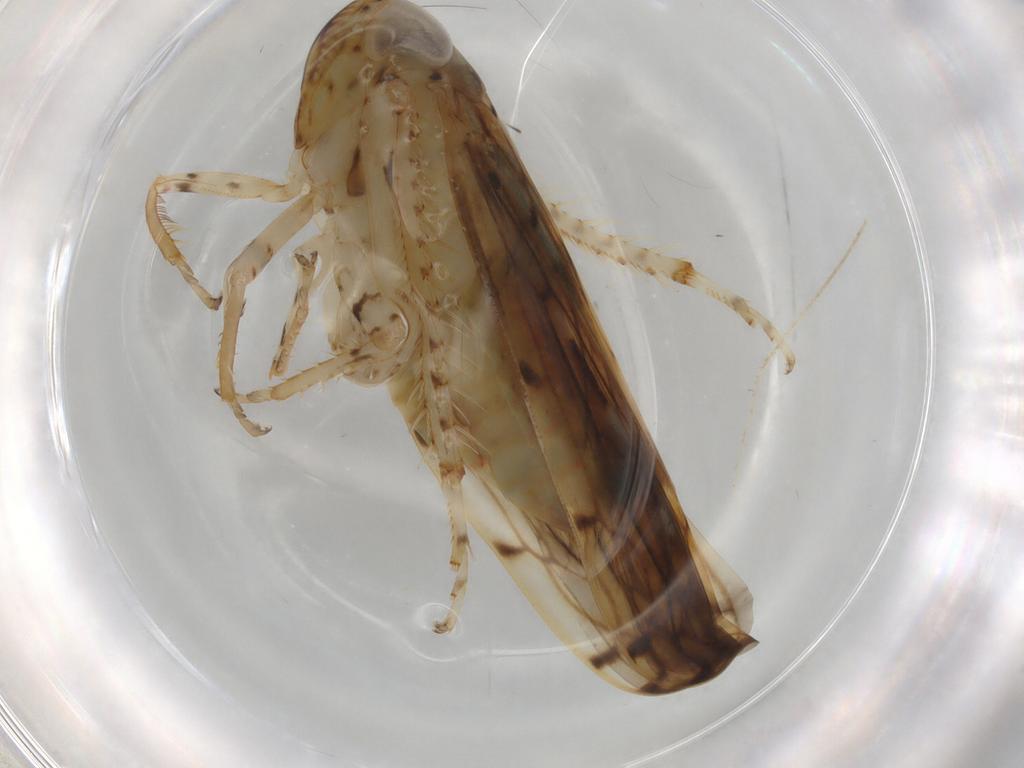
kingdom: Animalia
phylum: Arthropoda
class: Insecta
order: Hemiptera
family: Cicadellidae
